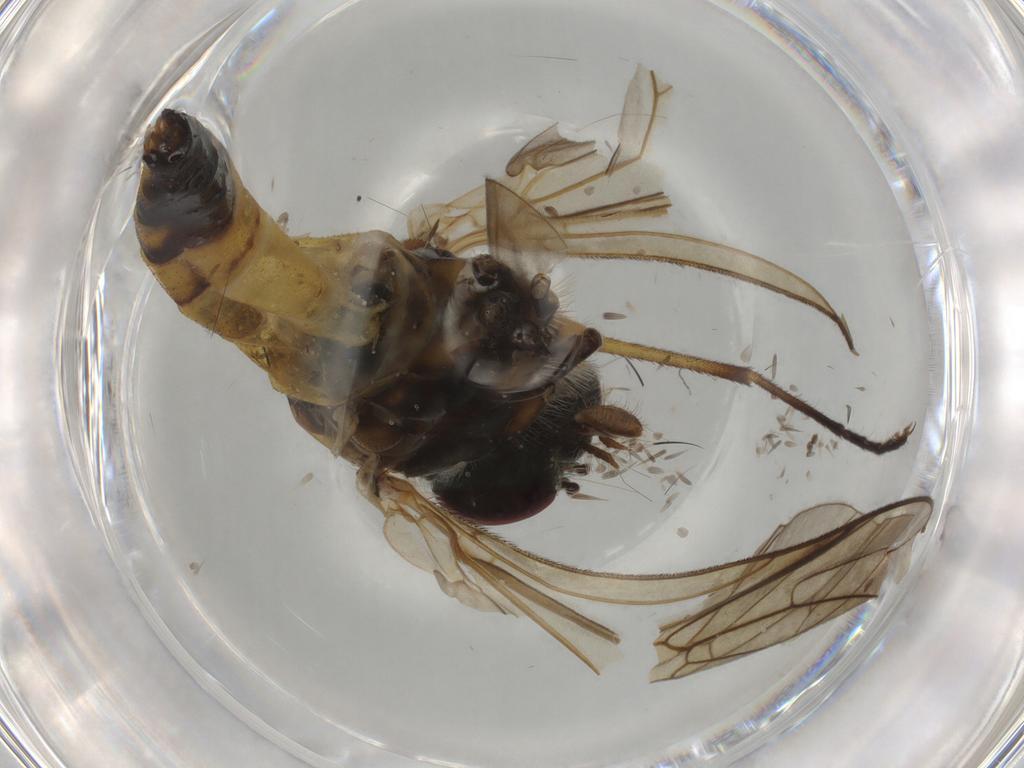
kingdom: Animalia
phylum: Arthropoda
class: Insecta
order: Diptera
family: Rhagionidae
